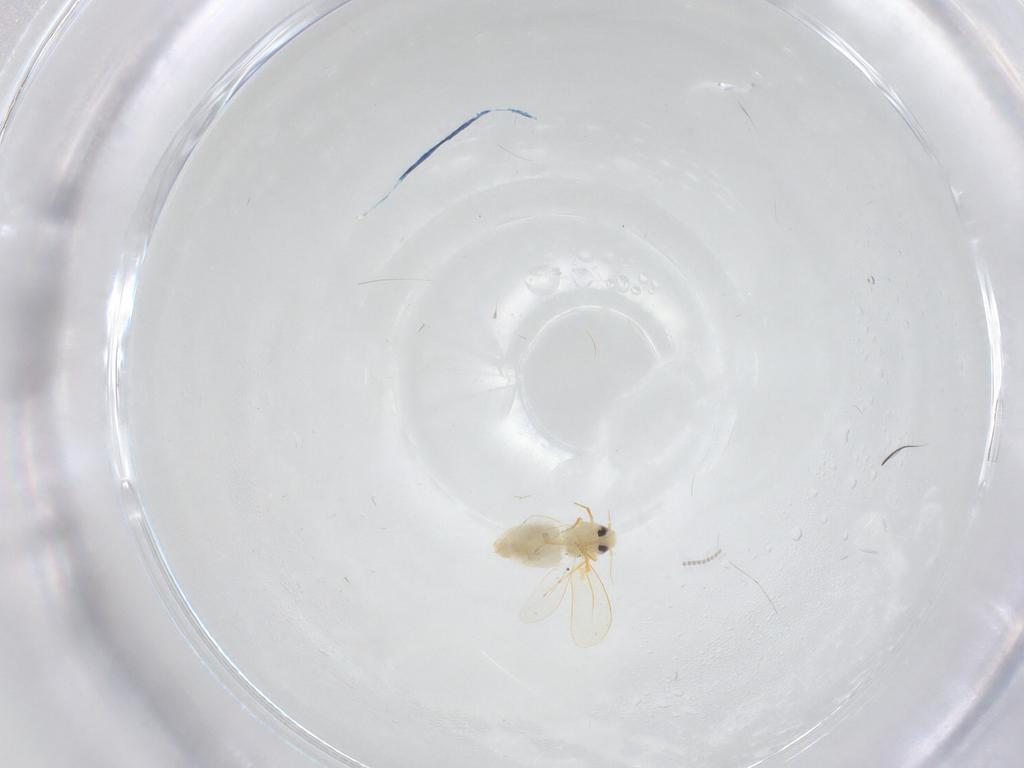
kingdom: Animalia
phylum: Arthropoda
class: Insecta
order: Hemiptera
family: Aleyrodidae
